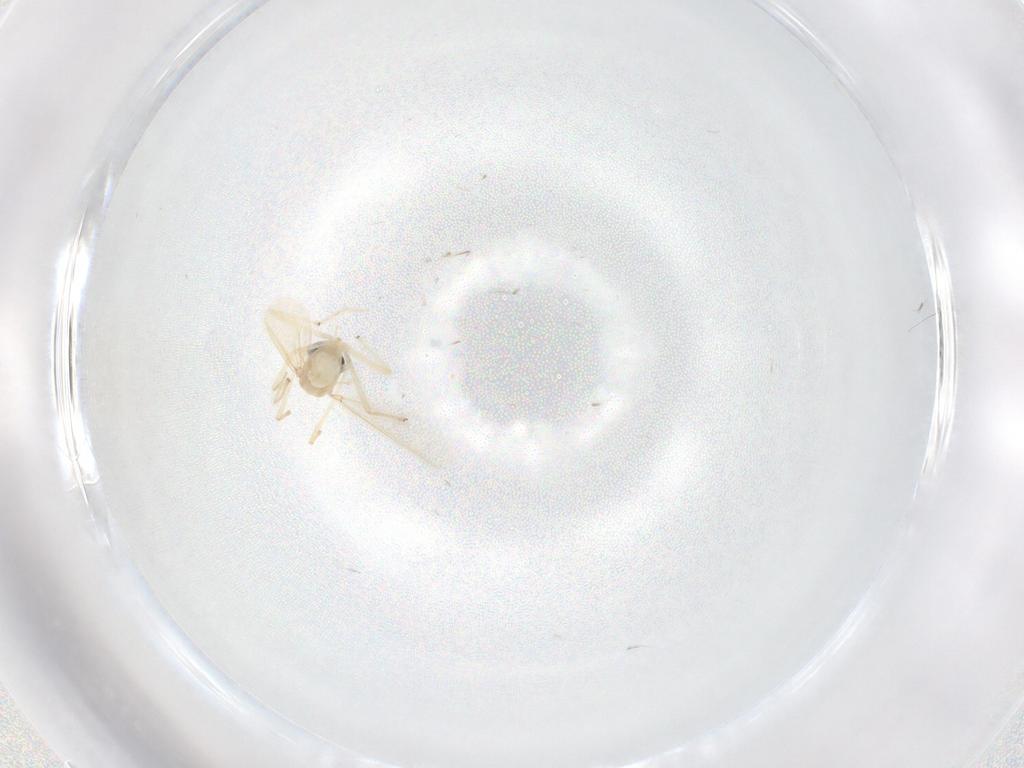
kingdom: Animalia
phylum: Arthropoda
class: Insecta
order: Diptera
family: Chironomidae
